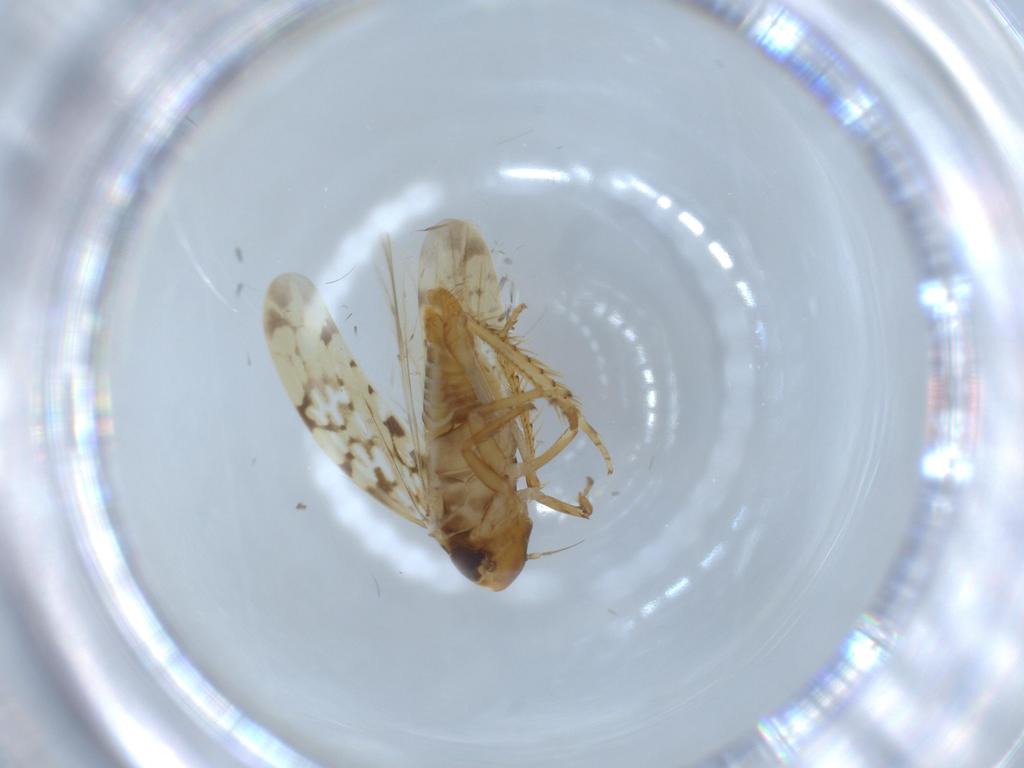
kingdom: Animalia
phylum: Arthropoda
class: Insecta
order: Hemiptera
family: Cicadellidae
